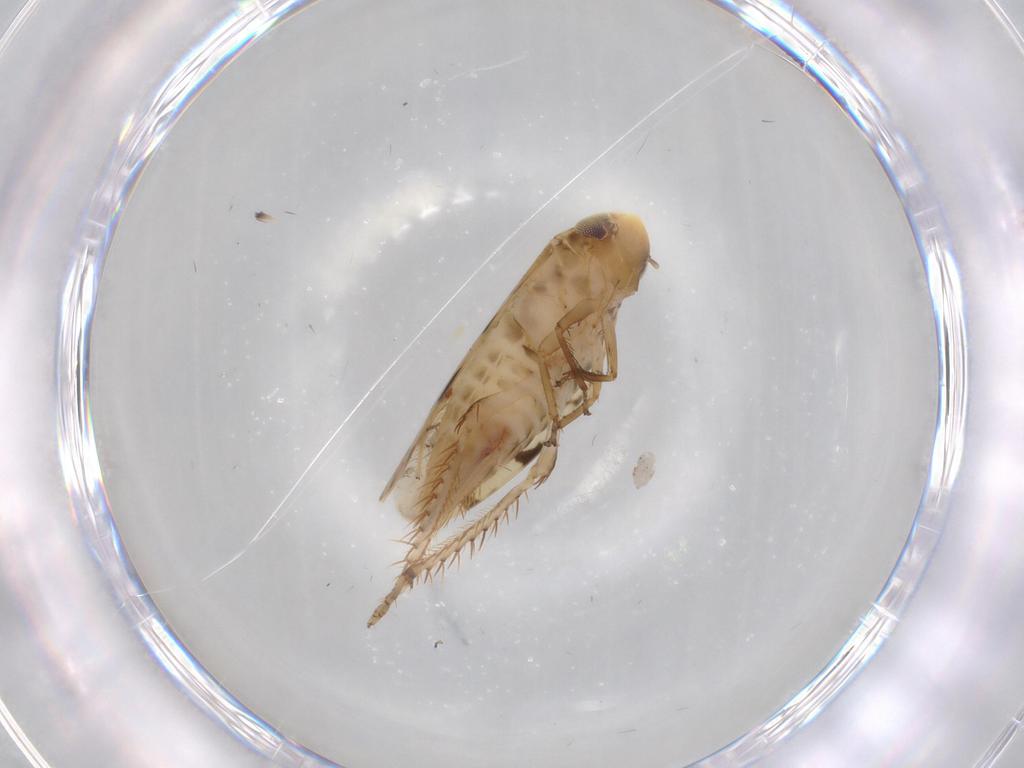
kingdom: Animalia
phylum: Arthropoda
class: Insecta
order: Hemiptera
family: Cicadellidae
